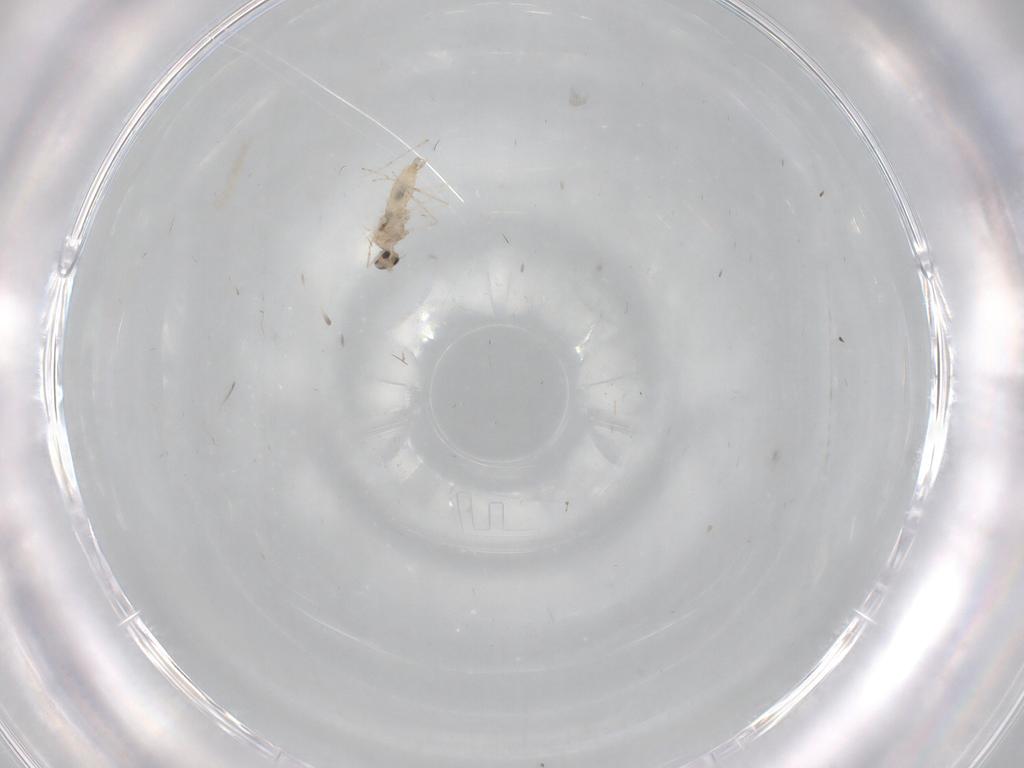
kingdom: Animalia
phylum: Arthropoda
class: Insecta
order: Diptera
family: Cecidomyiidae
